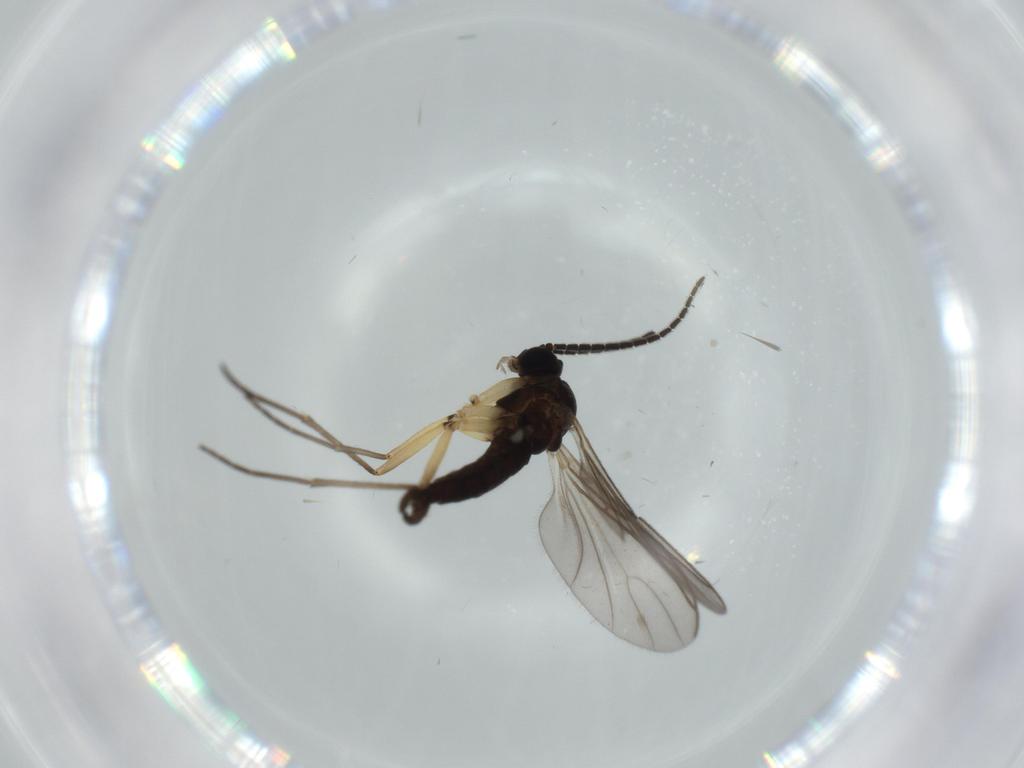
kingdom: Animalia
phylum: Arthropoda
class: Insecta
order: Diptera
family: Sciaridae
